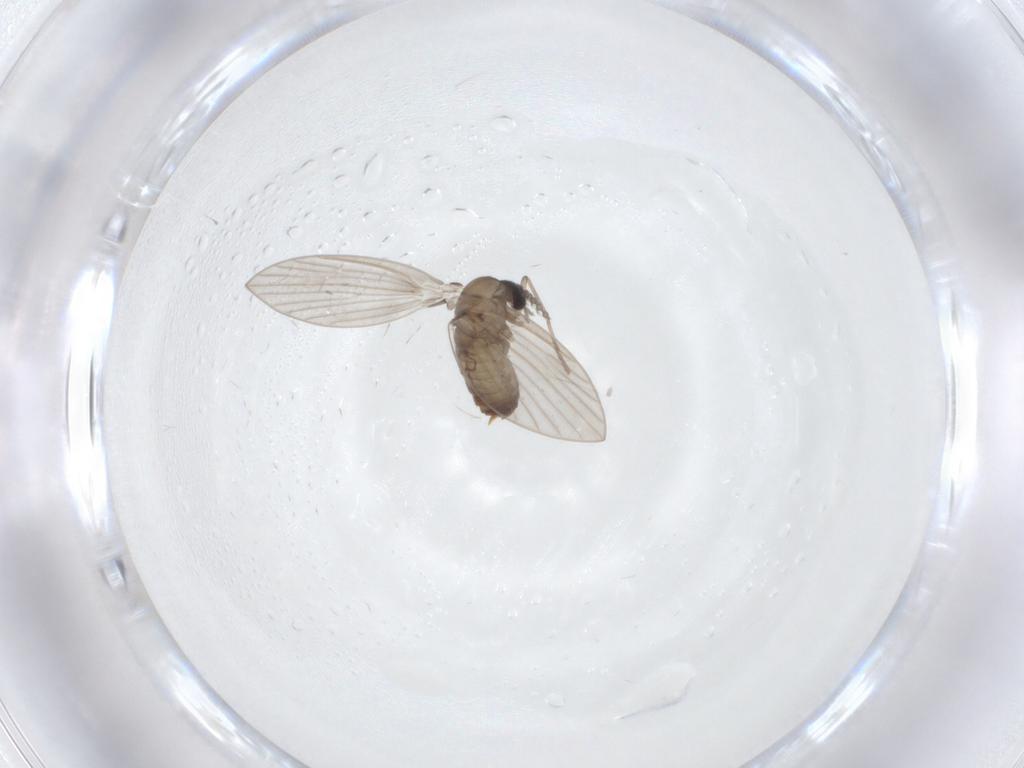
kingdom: Animalia
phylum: Arthropoda
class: Insecta
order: Diptera
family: Psychodidae
